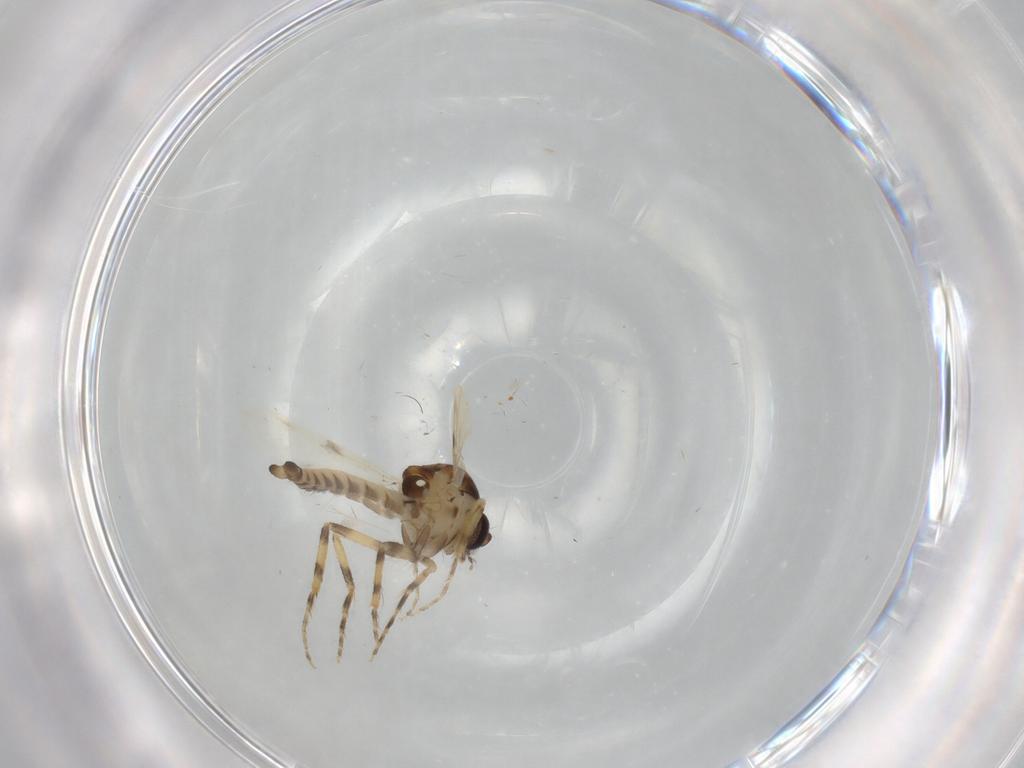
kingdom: Animalia
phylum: Arthropoda
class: Insecta
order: Diptera
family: Ceratopogonidae
